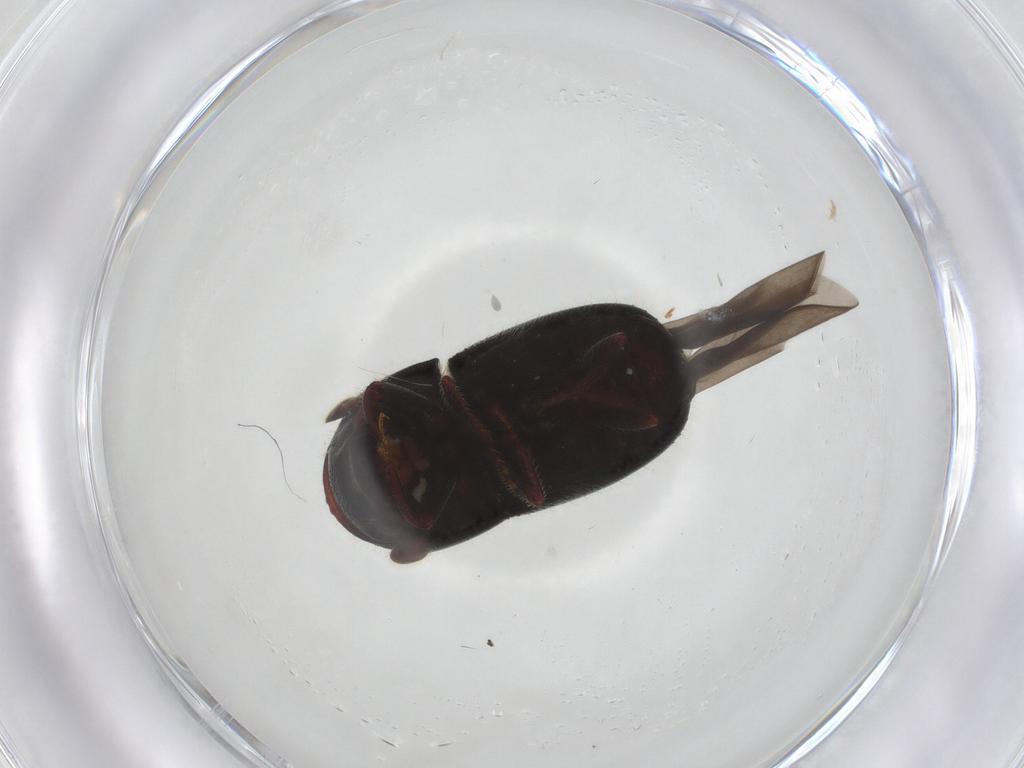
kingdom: Animalia
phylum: Arthropoda
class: Insecta
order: Coleoptera
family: Curculionidae
